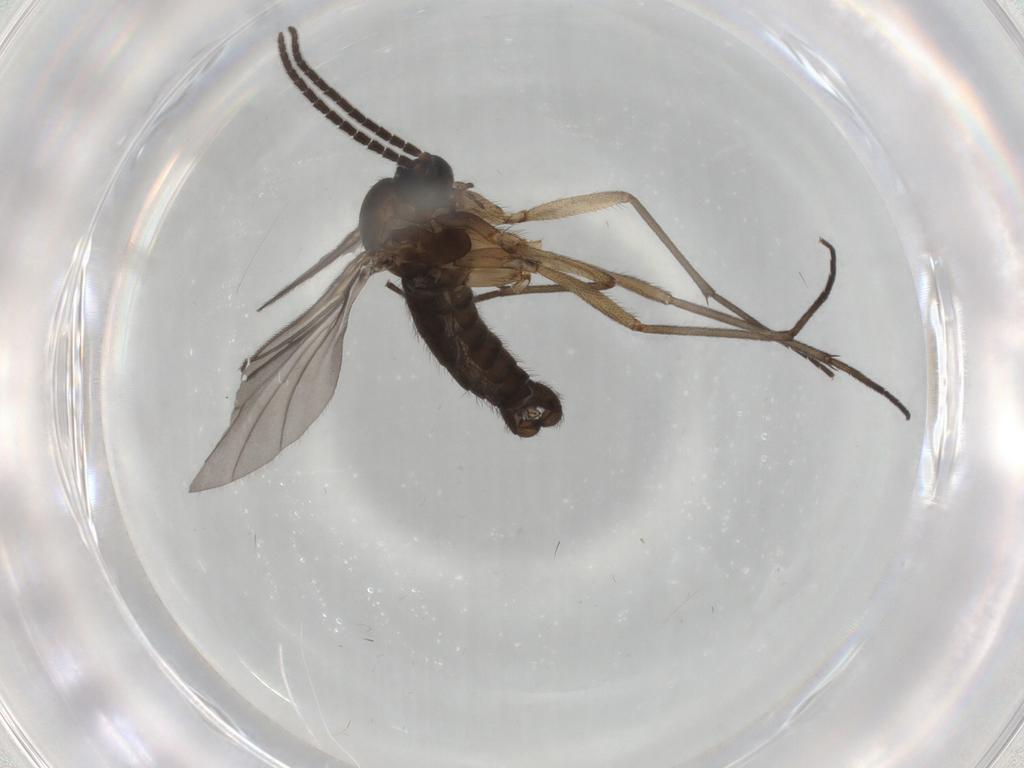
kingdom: Animalia
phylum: Arthropoda
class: Insecta
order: Diptera
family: Sciaridae
